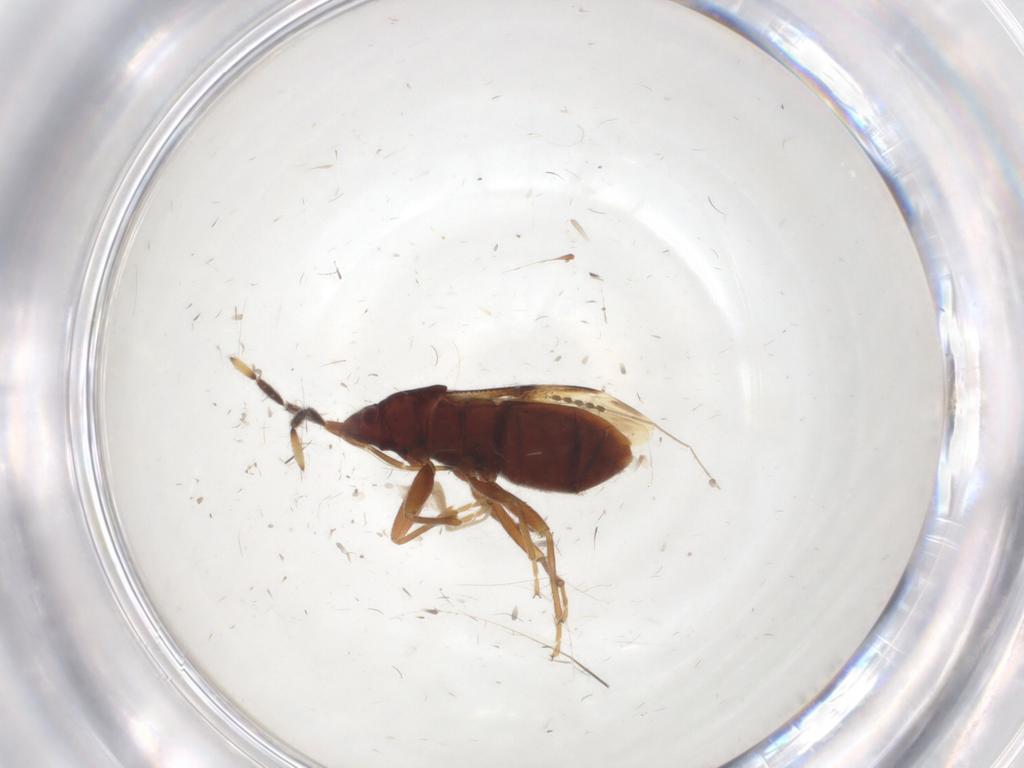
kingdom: Animalia
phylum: Arthropoda
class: Insecta
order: Hemiptera
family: Rhyparochromidae
